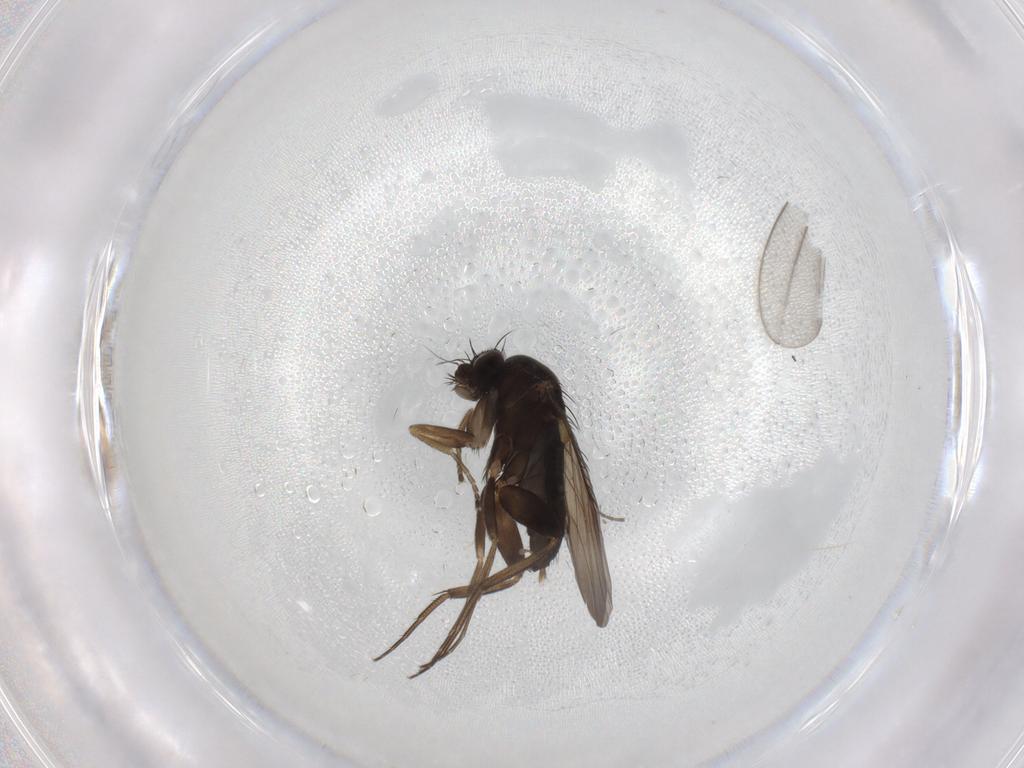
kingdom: Animalia
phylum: Arthropoda
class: Insecta
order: Diptera
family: Phoridae
